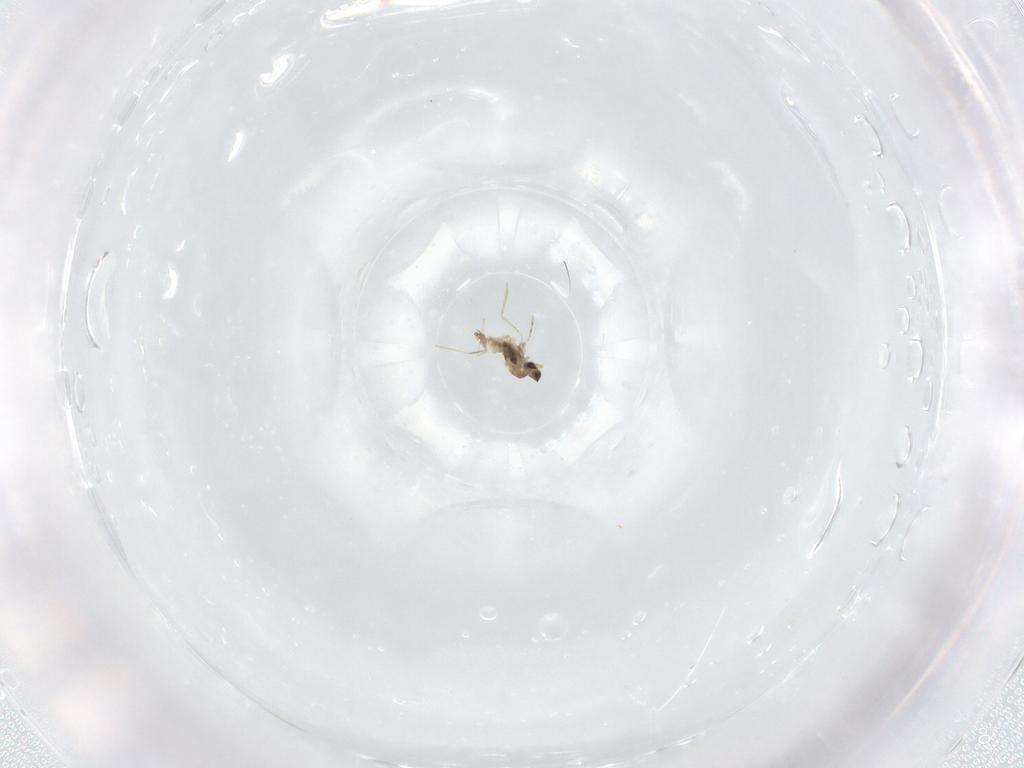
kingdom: Animalia
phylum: Arthropoda
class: Insecta
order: Diptera
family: Cecidomyiidae
